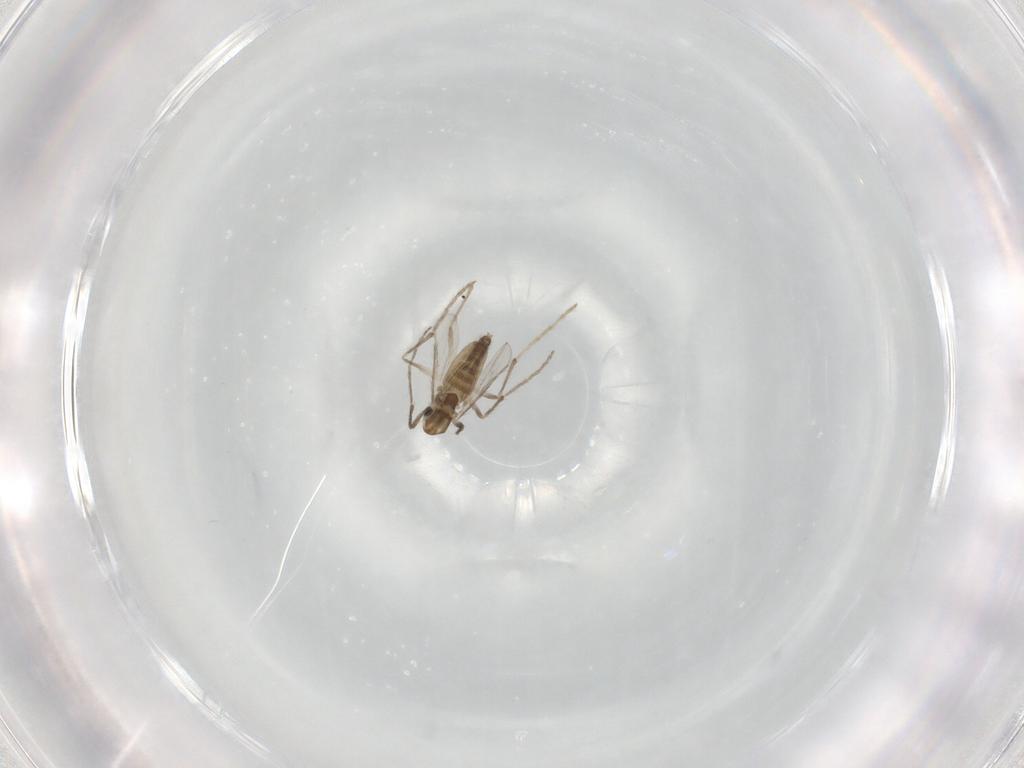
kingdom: Animalia
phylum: Arthropoda
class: Insecta
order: Diptera
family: Chironomidae
